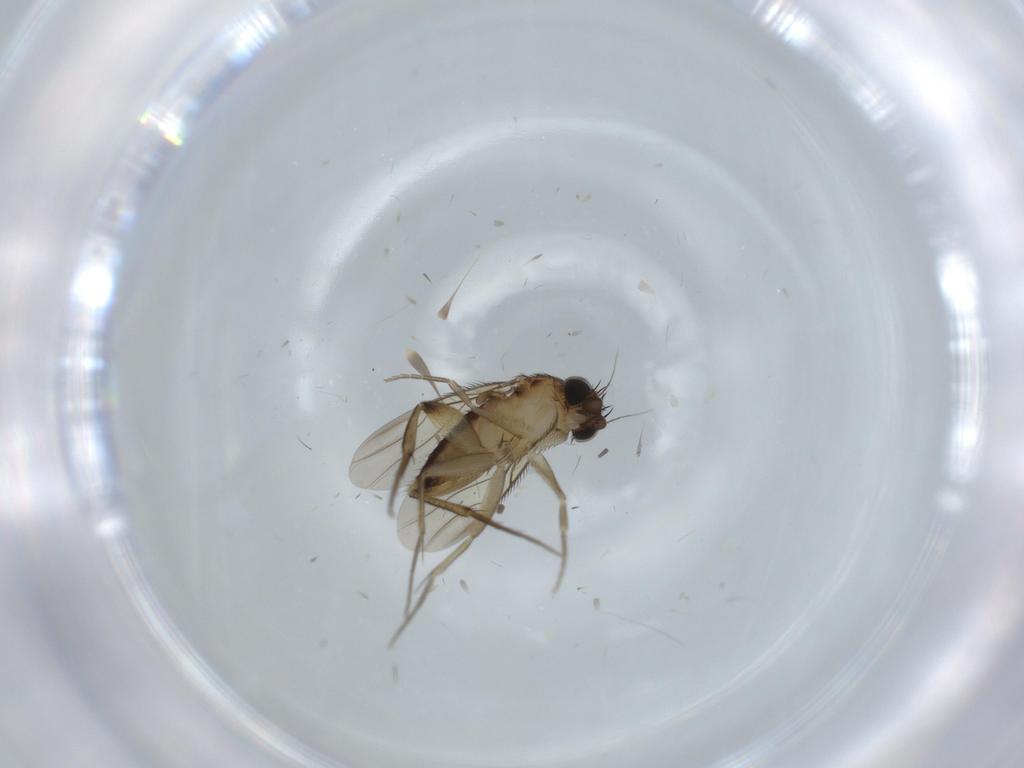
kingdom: Animalia
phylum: Arthropoda
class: Insecta
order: Diptera
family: Phoridae
